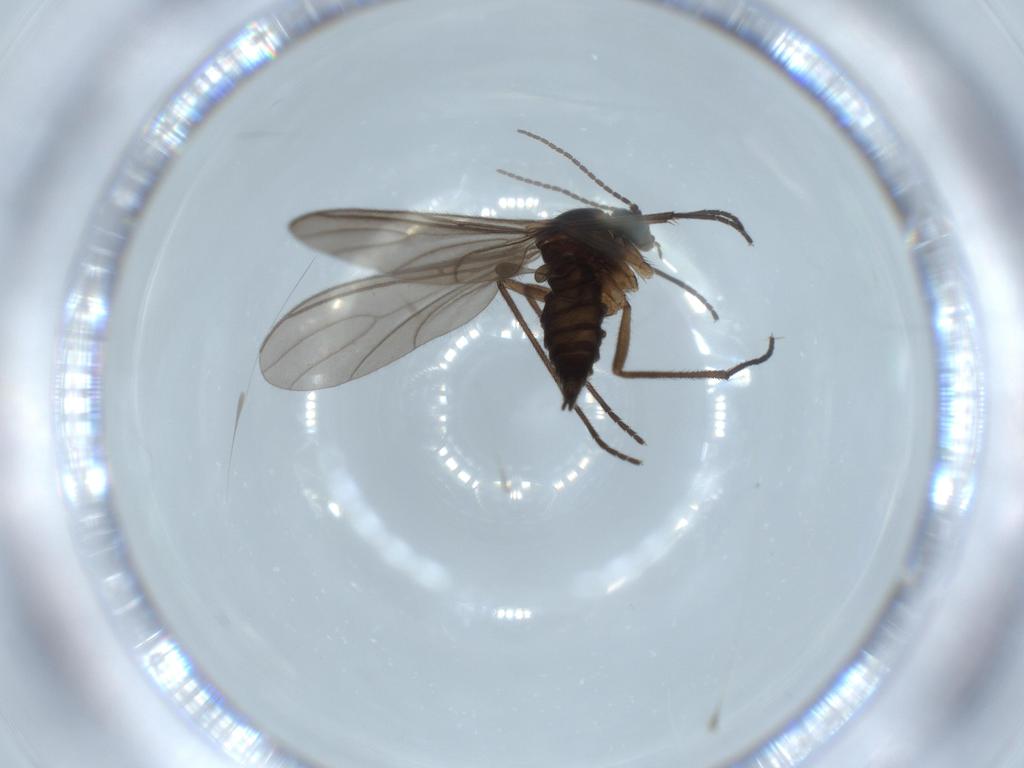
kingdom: Animalia
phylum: Arthropoda
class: Insecta
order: Diptera
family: Sciaridae
